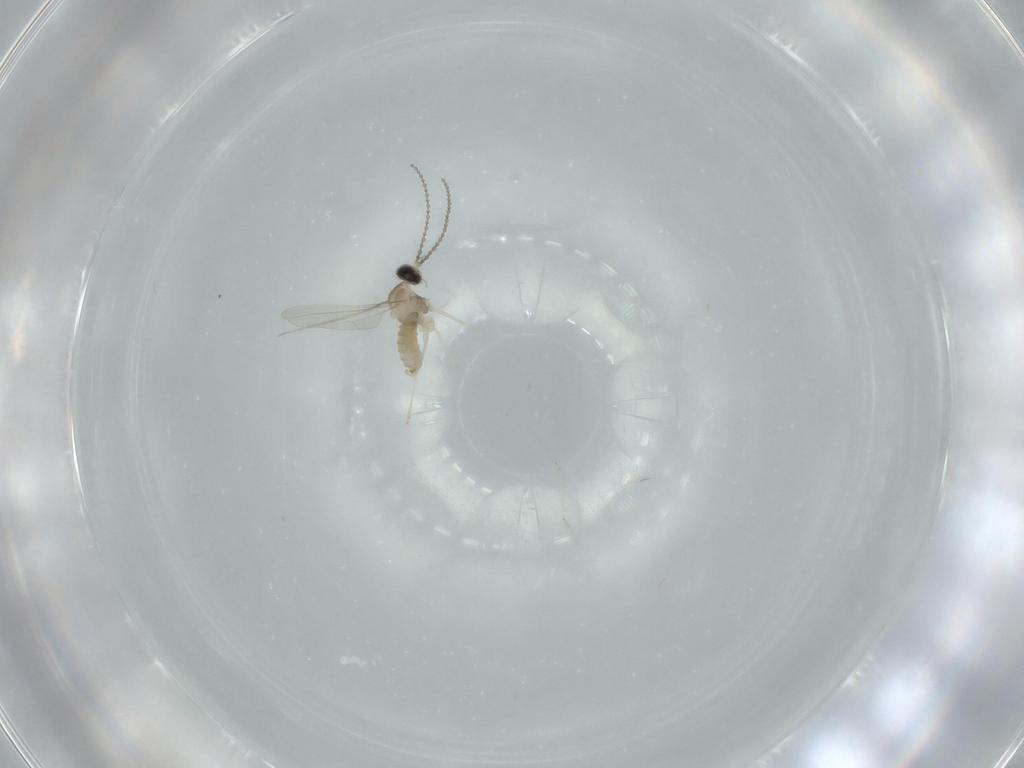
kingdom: Animalia
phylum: Arthropoda
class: Insecta
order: Diptera
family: Cecidomyiidae
